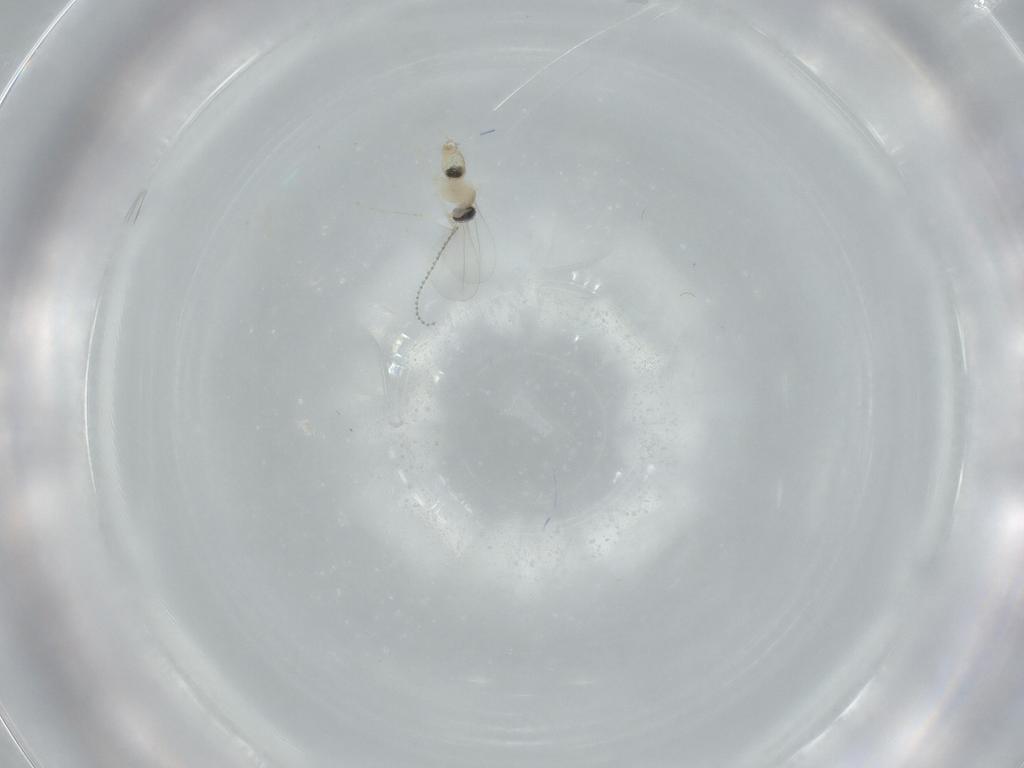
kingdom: Animalia
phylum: Arthropoda
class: Insecta
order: Diptera
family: Cecidomyiidae
